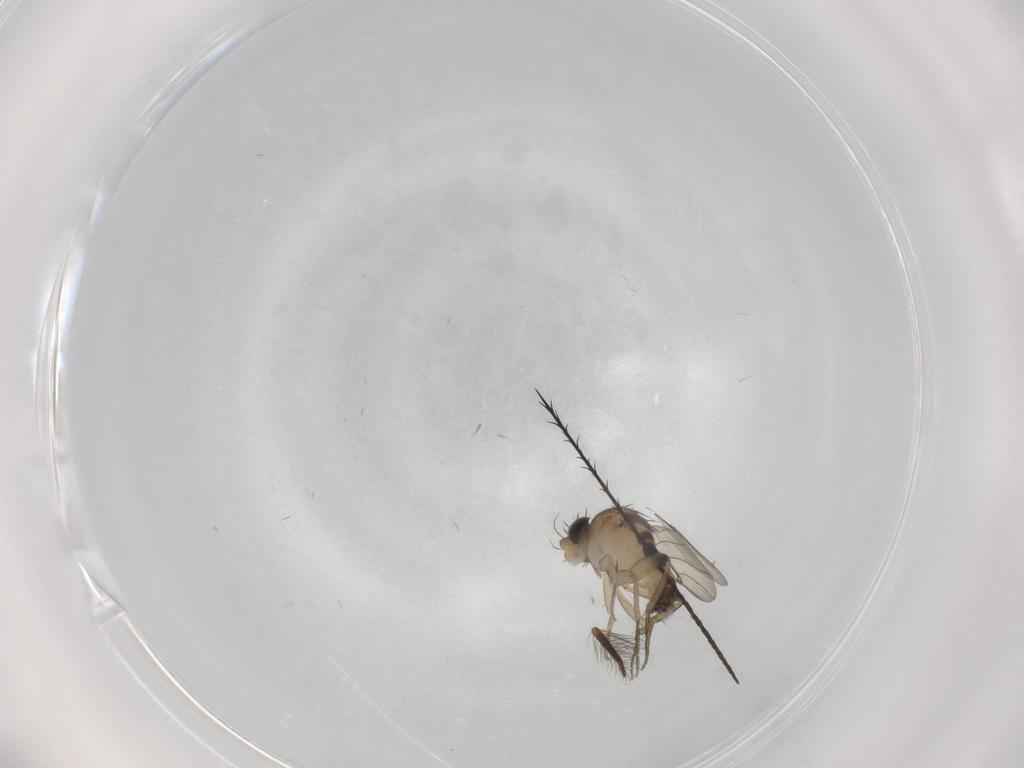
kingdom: Animalia
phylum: Arthropoda
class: Insecta
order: Diptera
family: Phoridae
